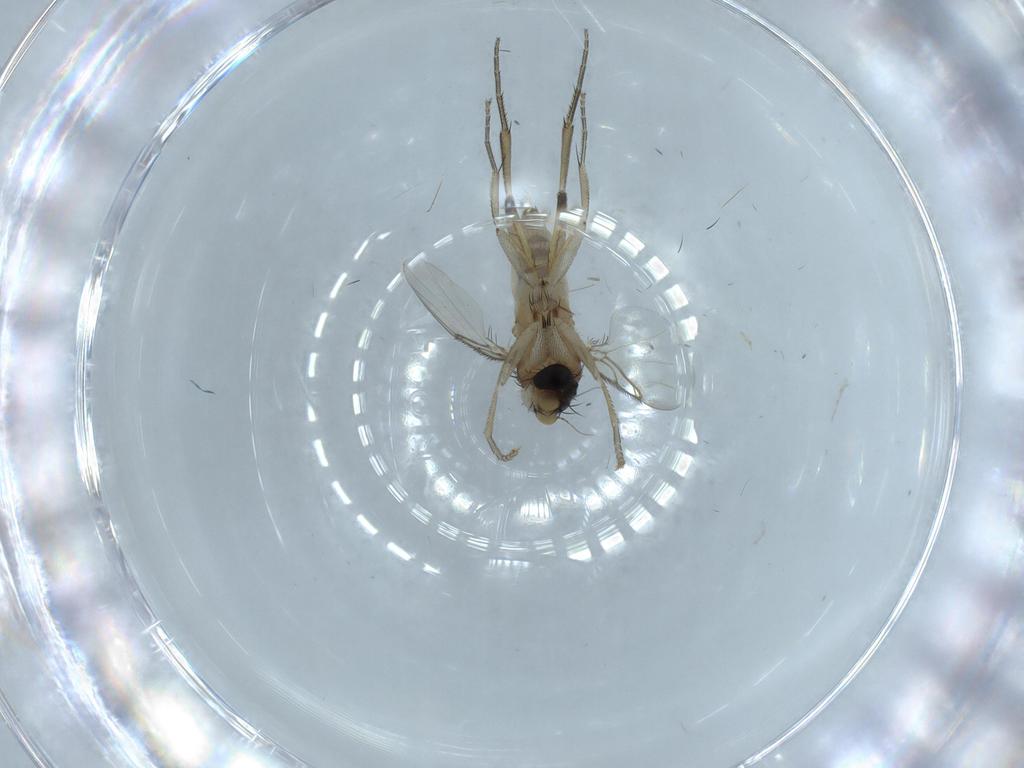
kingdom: Animalia
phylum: Arthropoda
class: Insecta
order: Diptera
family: Phoridae
